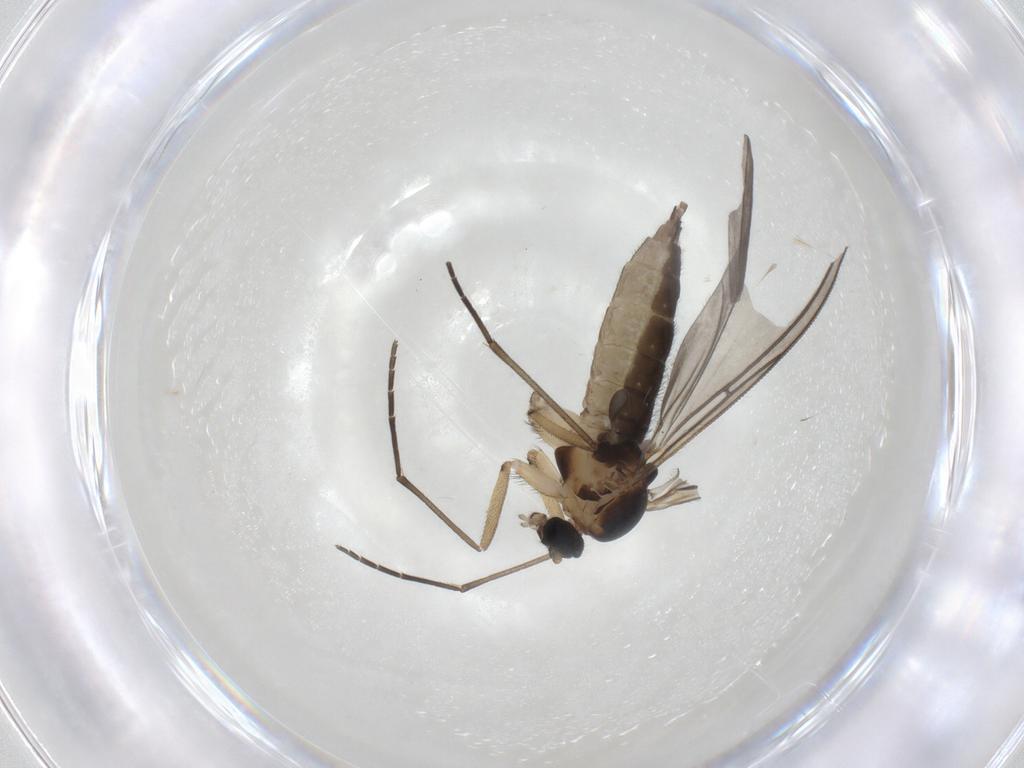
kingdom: Animalia
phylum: Arthropoda
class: Insecta
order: Diptera
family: Sciaridae
